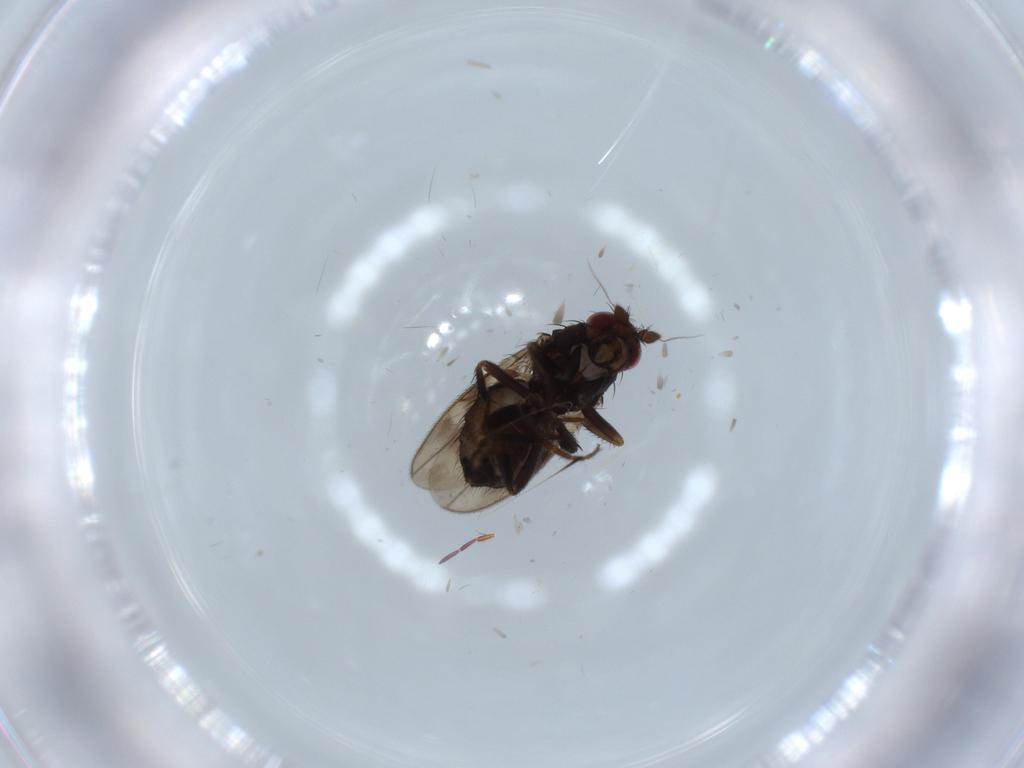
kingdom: Animalia
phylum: Arthropoda
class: Insecta
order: Diptera
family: Sphaeroceridae
